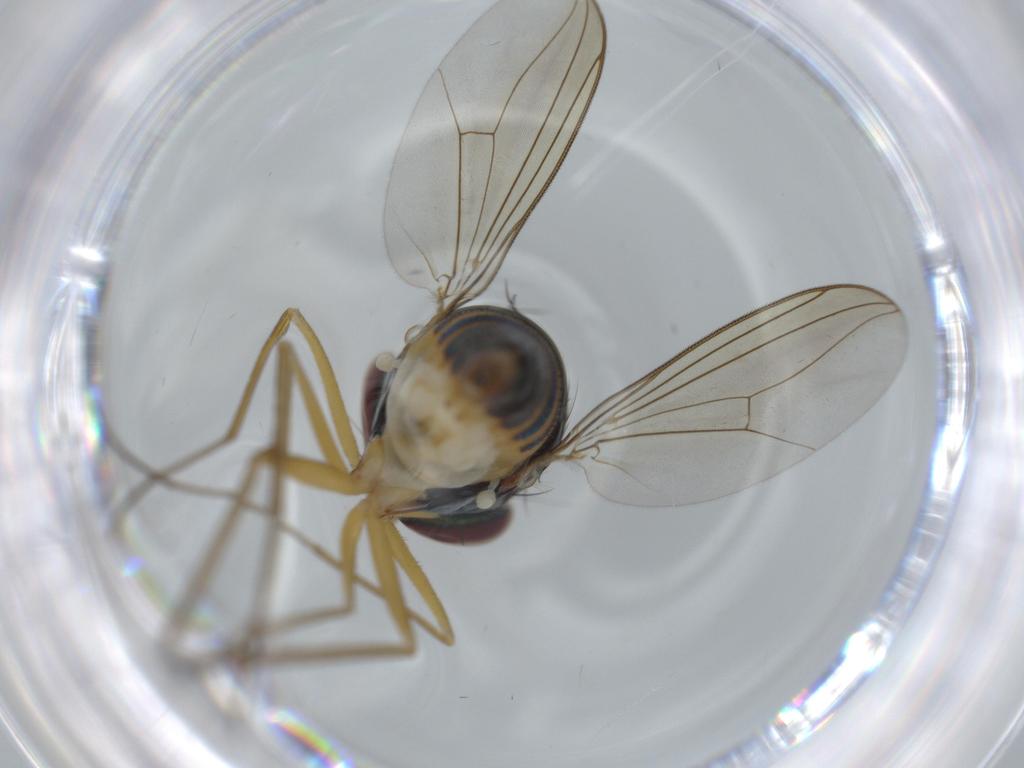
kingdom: Animalia
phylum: Arthropoda
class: Insecta
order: Diptera
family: Dolichopodidae
